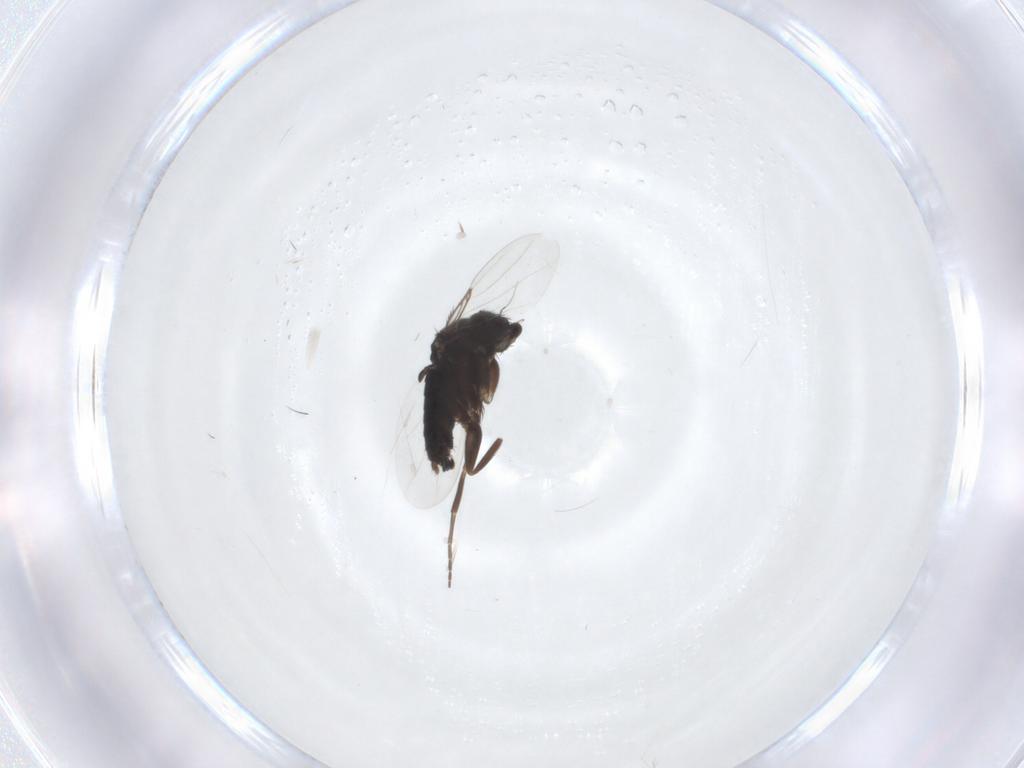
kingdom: Animalia
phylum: Arthropoda
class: Insecta
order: Diptera
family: Phoridae
